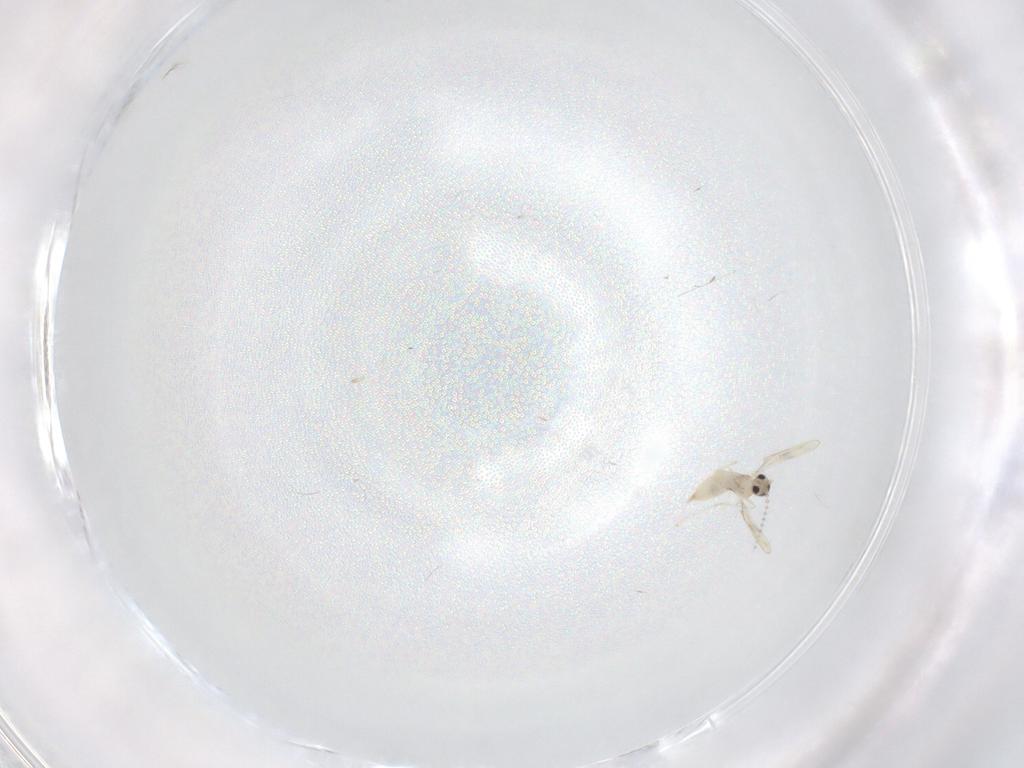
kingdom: Animalia
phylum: Arthropoda
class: Insecta
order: Diptera
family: Cecidomyiidae
